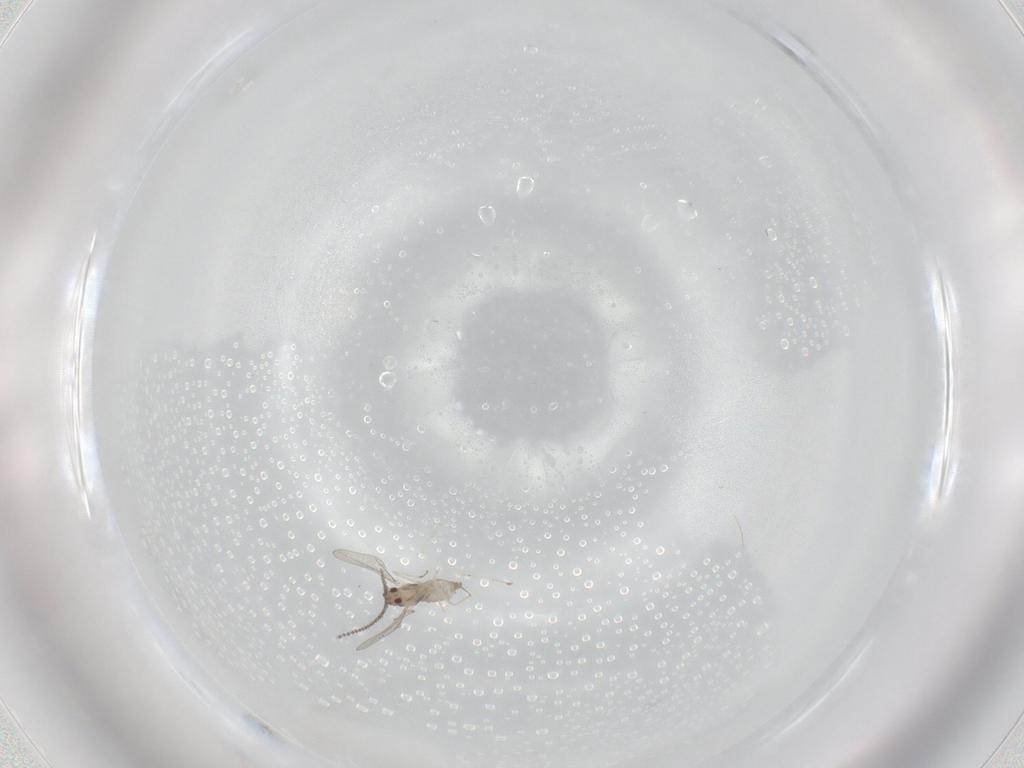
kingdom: Animalia
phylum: Arthropoda
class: Insecta
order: Diptera
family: Cecidomyiidae
